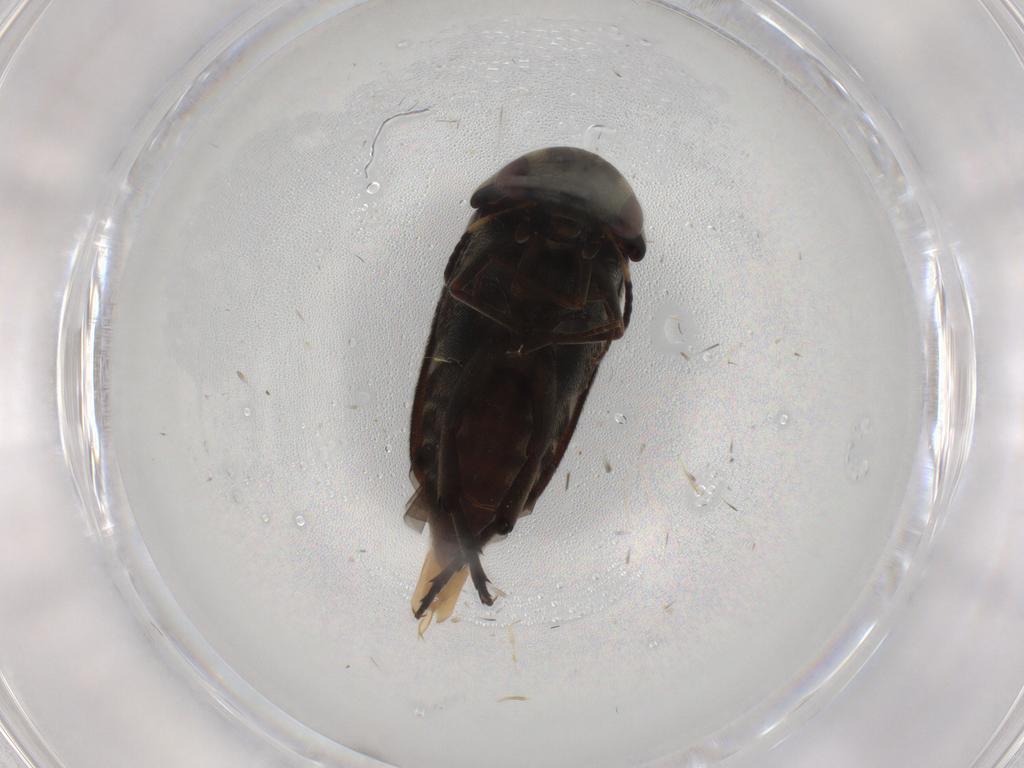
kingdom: Animalia
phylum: Arthropoda
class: Insecta
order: Coleoptera
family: Mordellidae
